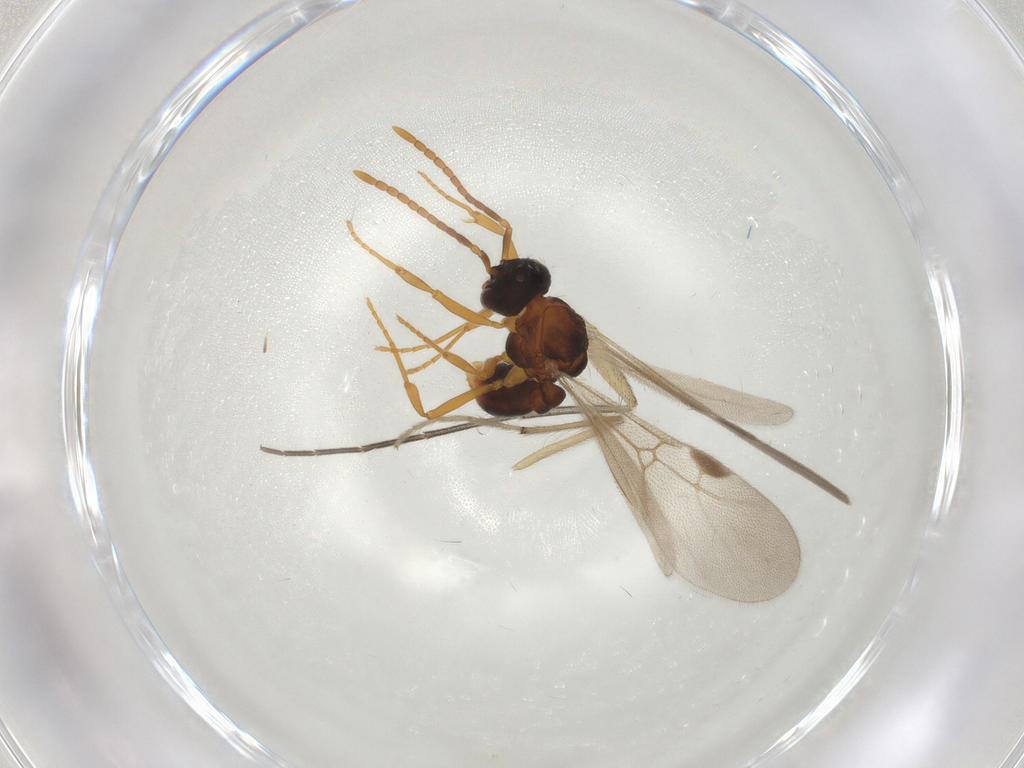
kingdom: Animalia
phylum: Arthropoda
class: Insecta
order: Hymenoptera
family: Formicidae
